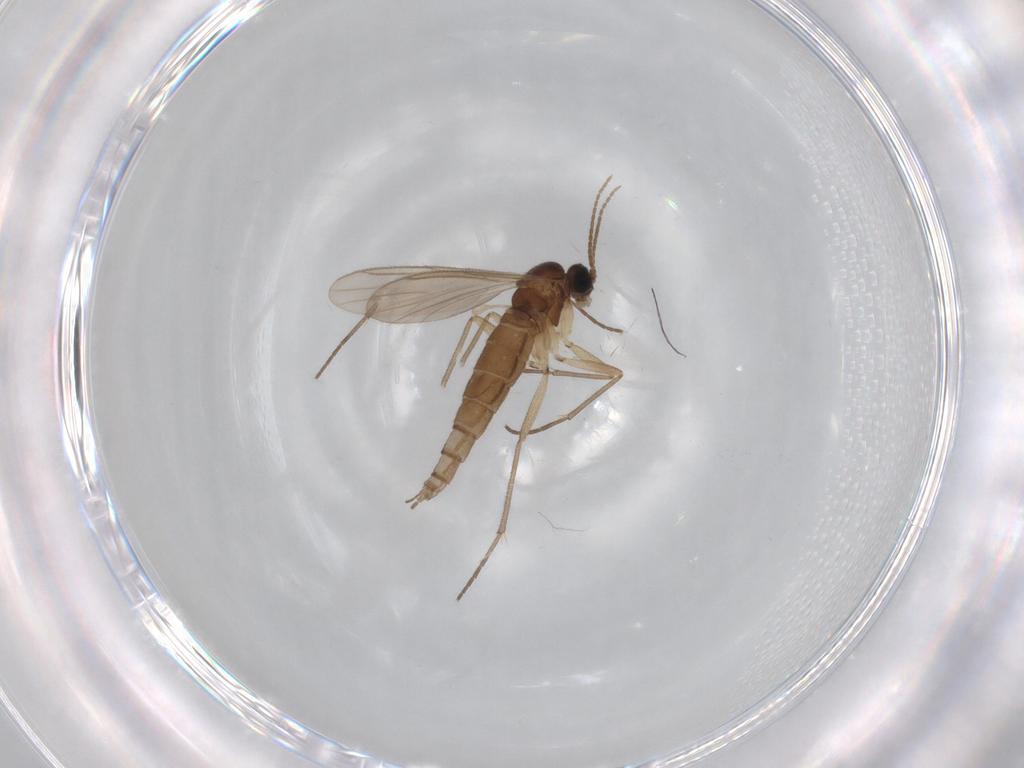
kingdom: Animalia
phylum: Arthropoda
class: Insecta
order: Diptera
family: Sciaridae
